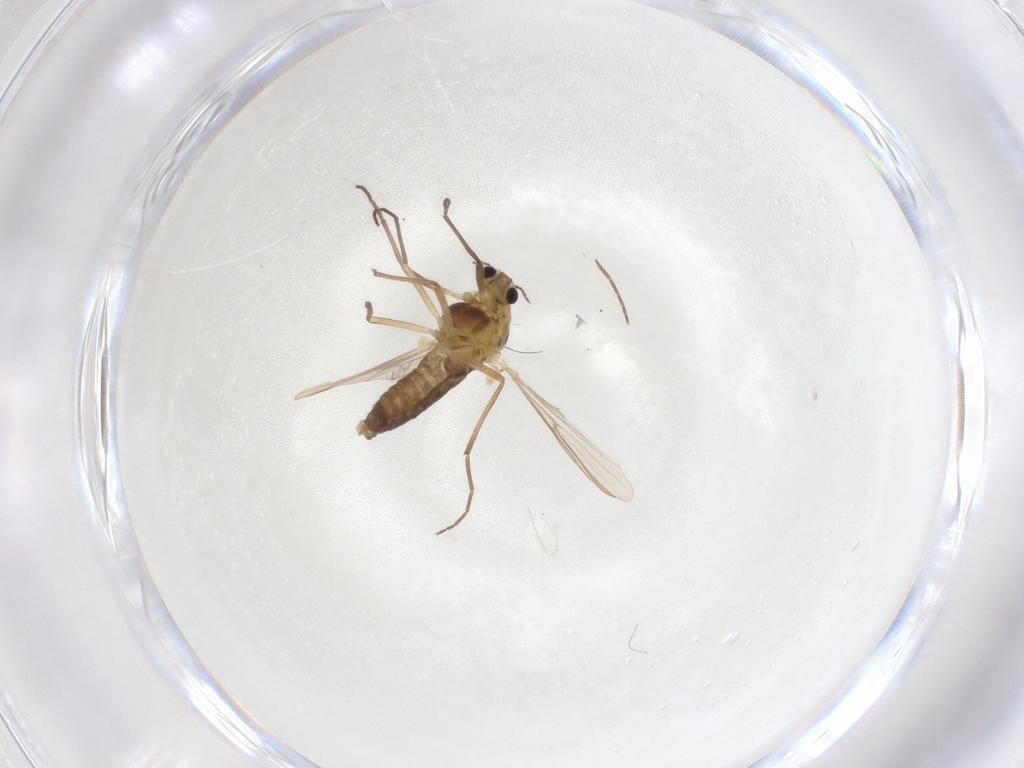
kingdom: Animalia
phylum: Arthropoda
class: Insecta
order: Diptera
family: Chironomidae
